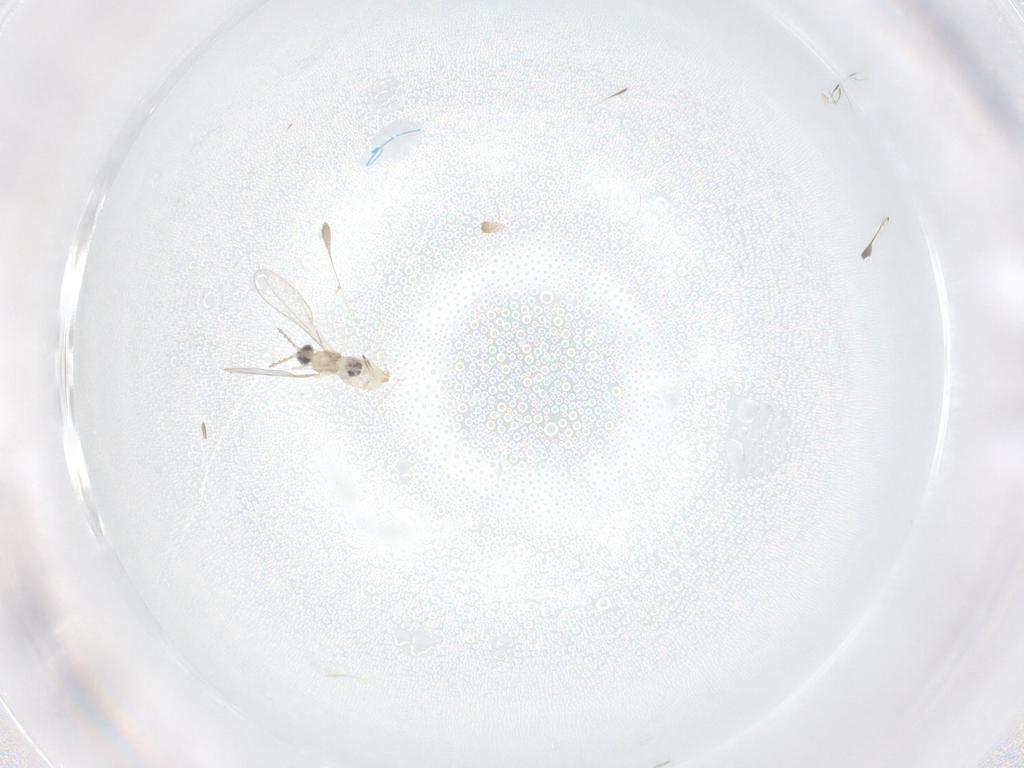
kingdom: Animalia
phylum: Arthropoda
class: Insecta
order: Diptera
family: Cecidomyiidae
